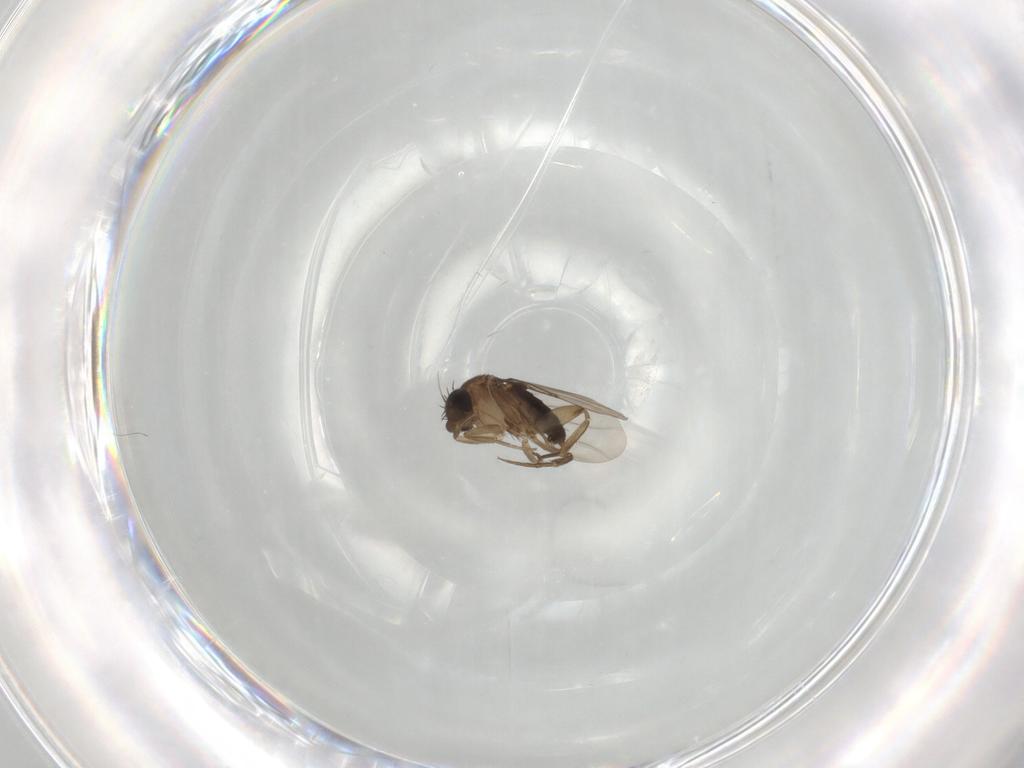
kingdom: Animalia
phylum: Arthropoda
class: Insecta
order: Diptera
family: Phoridae
